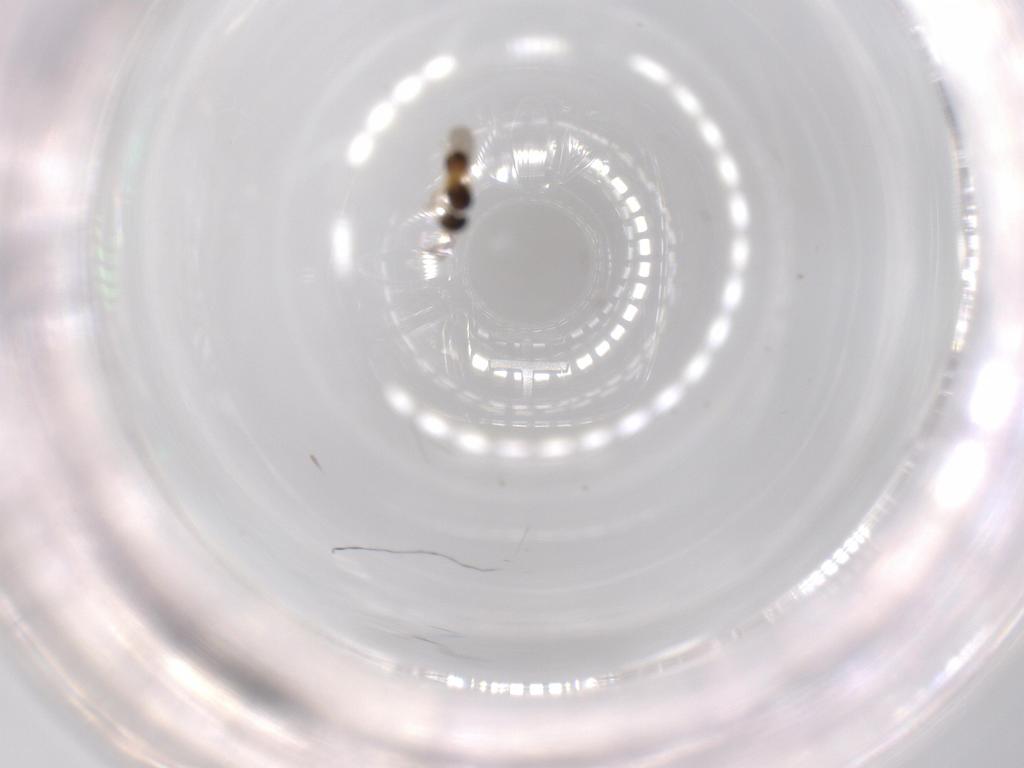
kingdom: Animalia
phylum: Arthropoda
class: Insecta
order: Hymenoptera
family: Scelionidae
